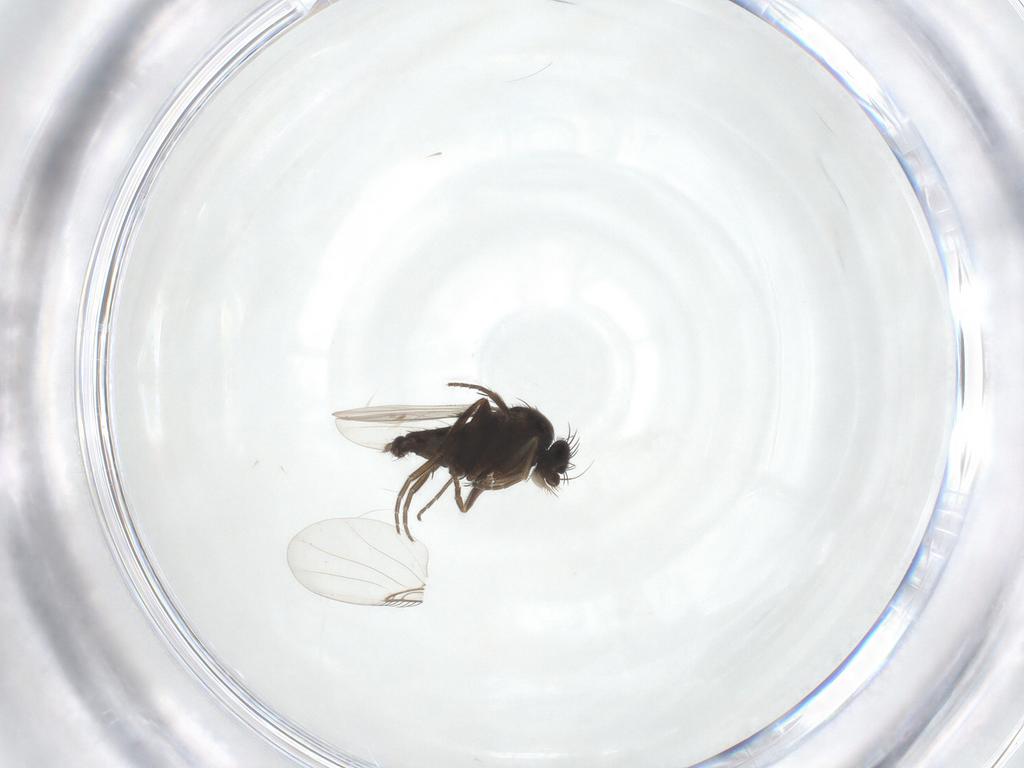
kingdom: Animalia
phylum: Arthropoda
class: Insecta
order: Diptera
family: Phoridae
